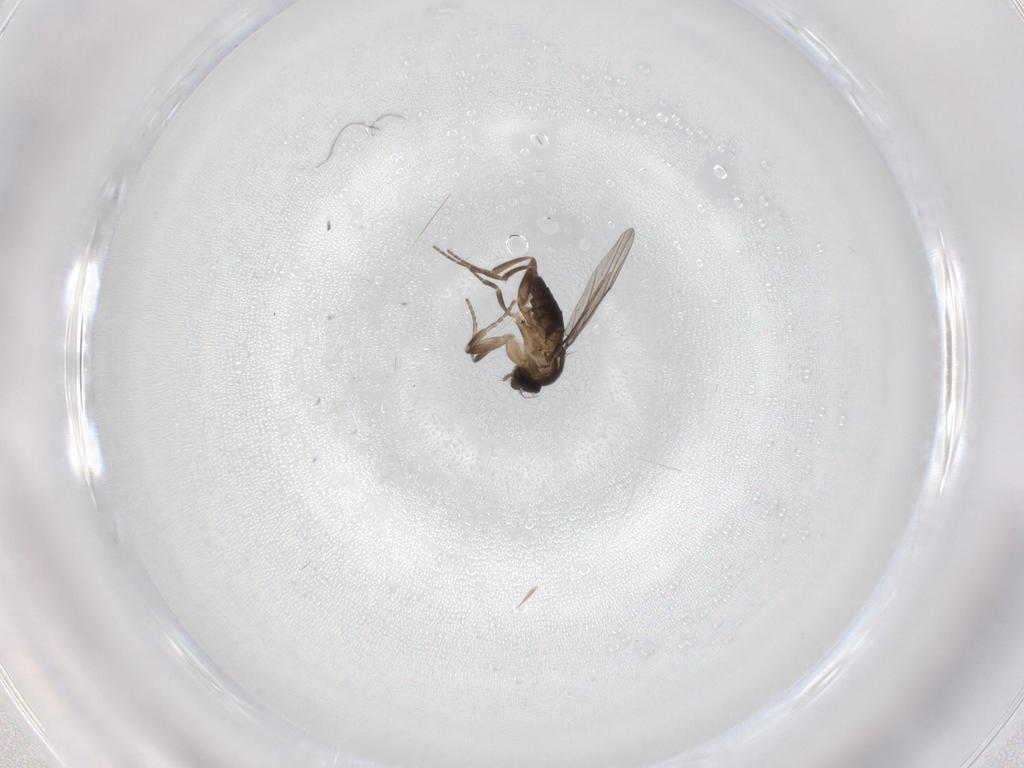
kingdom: Animalia
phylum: Arthropoda
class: Insecta
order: Diptera
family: Phoridae
